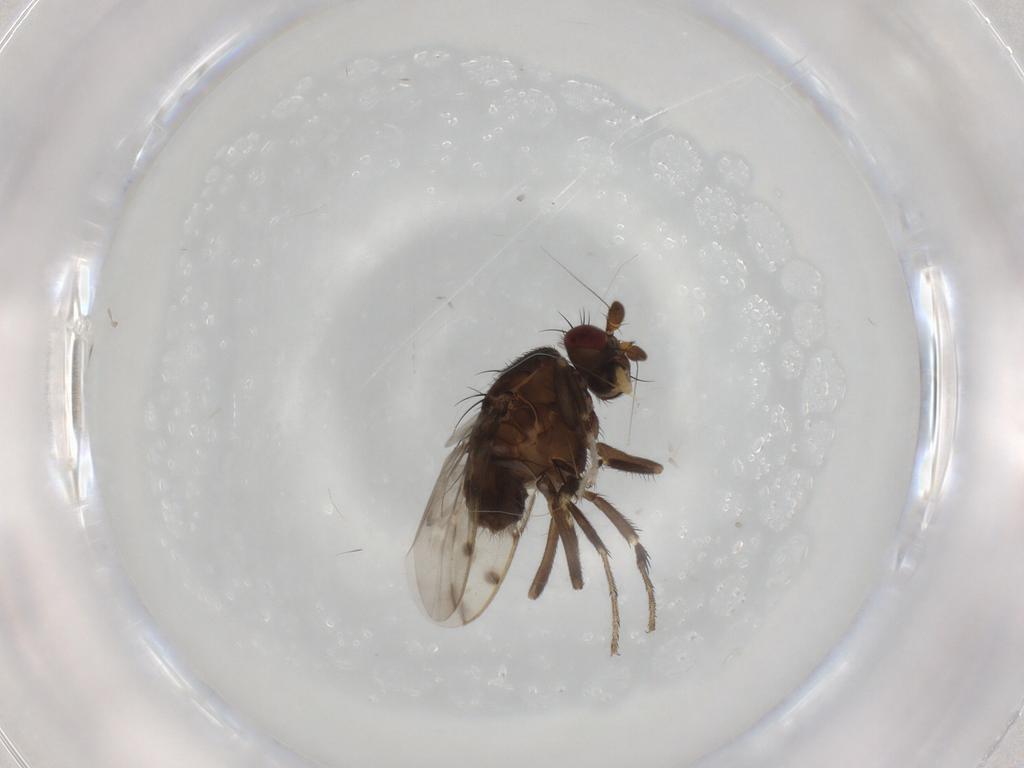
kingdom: Animalia
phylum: Arthropoda
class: Insecta
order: Diptera
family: Sphaeroceridae
